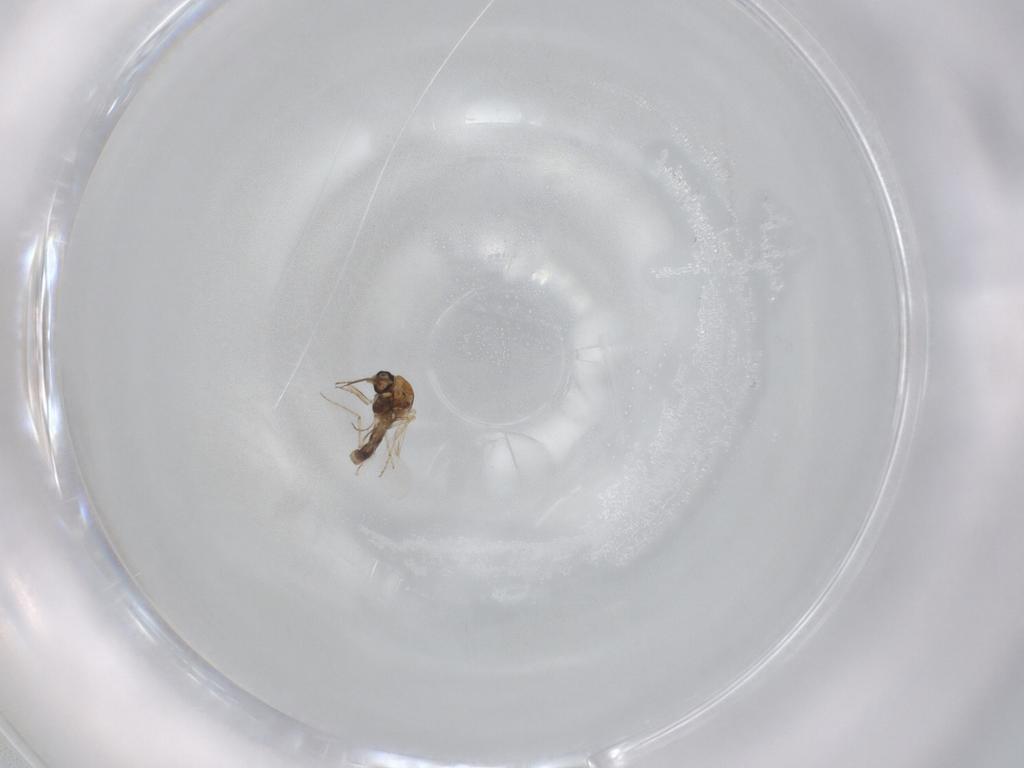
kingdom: Animalia
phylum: Arthropoda
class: Insecta
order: Diptera
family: Ceratopogonidae
